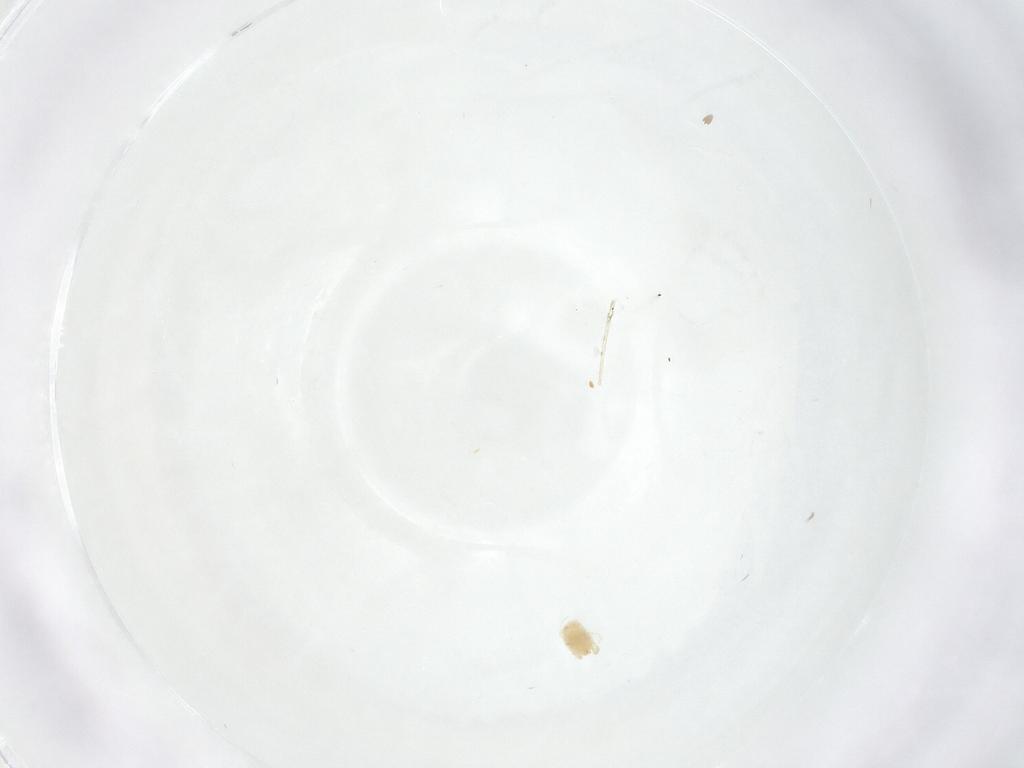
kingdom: Animalia
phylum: Arthropoda
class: Arachnida
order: Trombidiformes
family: Tetranychidae
